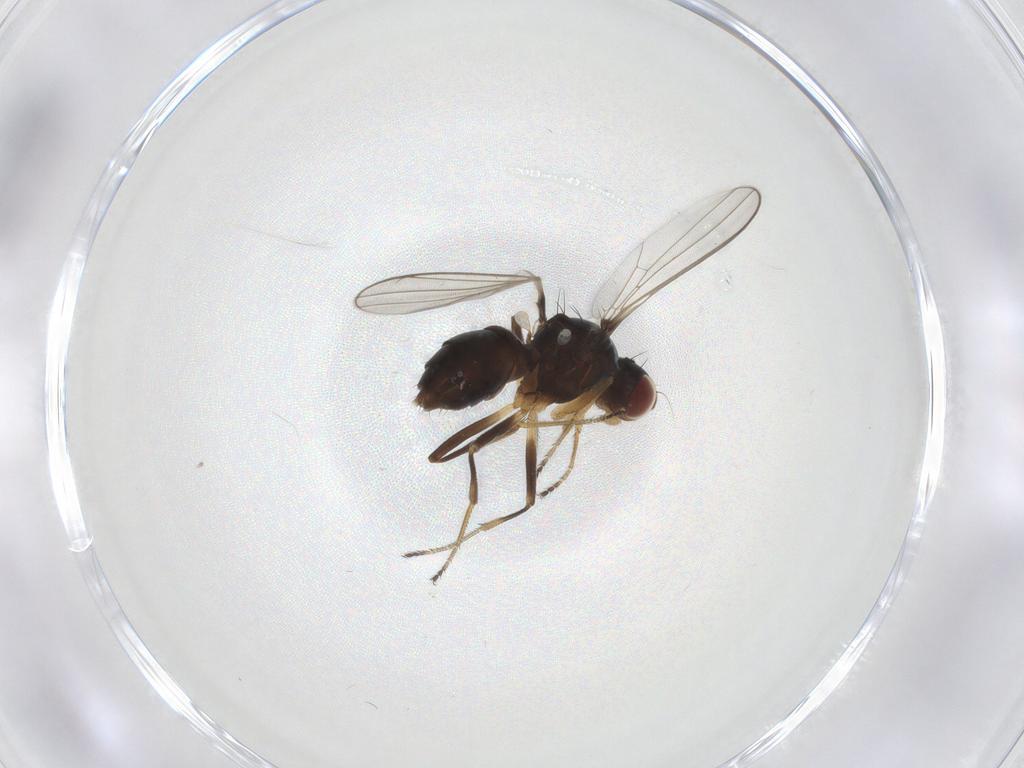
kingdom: Animalia
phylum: Arthropoda
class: Insecta
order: Diptera
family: Sepsidae
